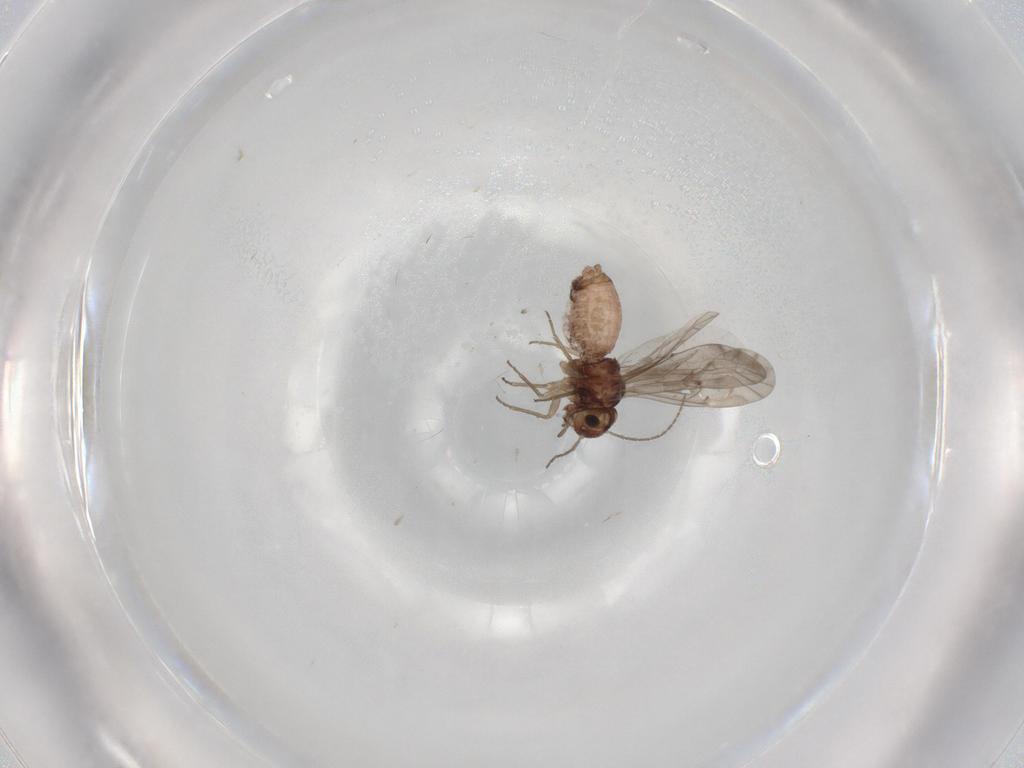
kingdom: Animalia
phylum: Arthropoda
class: Insecta
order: Psocodea
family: Lachesillidae
